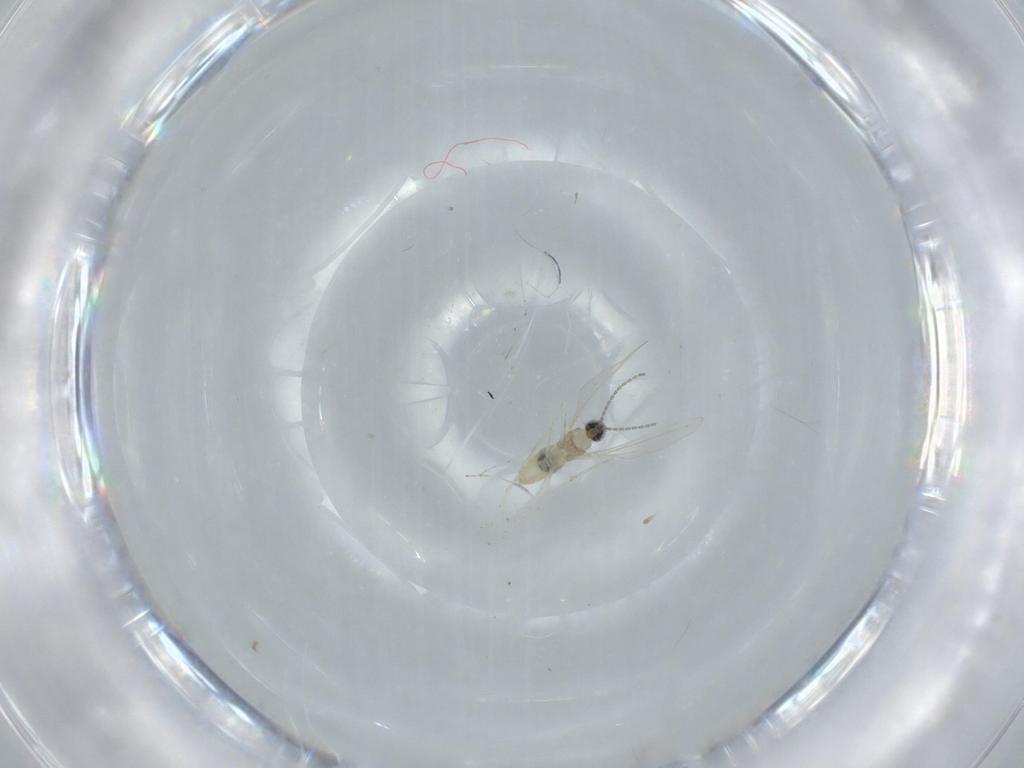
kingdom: Animalia
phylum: Arthropoda
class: Insecta
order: Diptera
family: Cecidomyiidae
